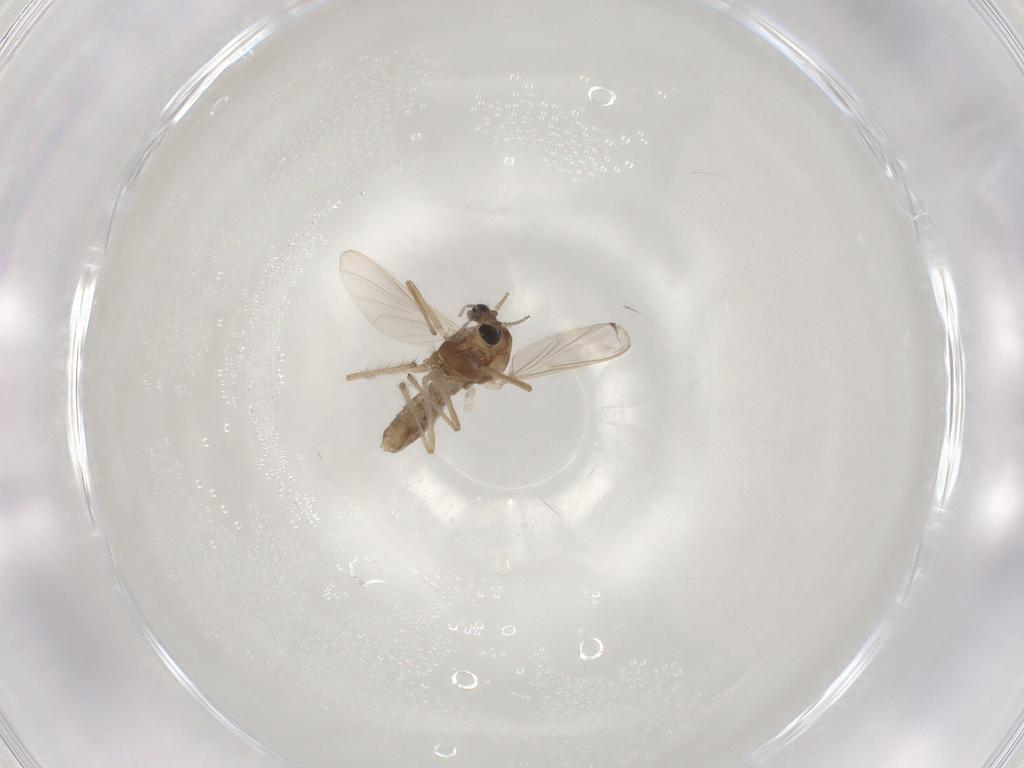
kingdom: Animalia
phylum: Arthropoda
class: Insecta
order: Diptera
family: Chironomidae
